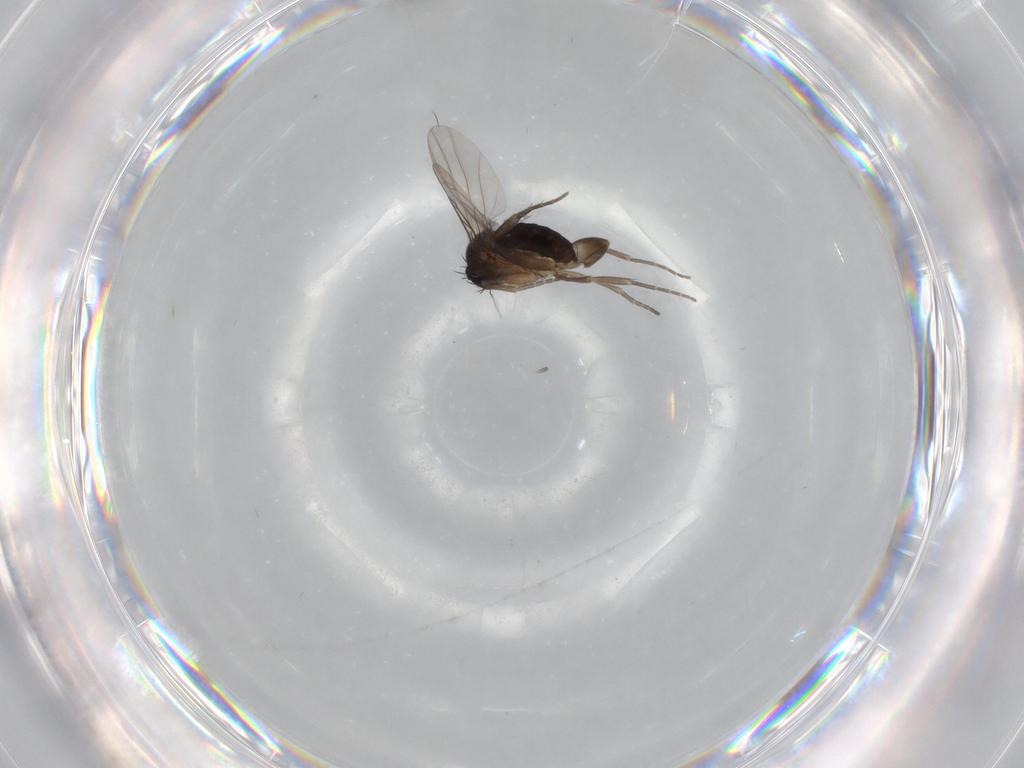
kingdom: Animalia
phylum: Arthropoda
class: Insecta
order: Diptera
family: Phoridae
